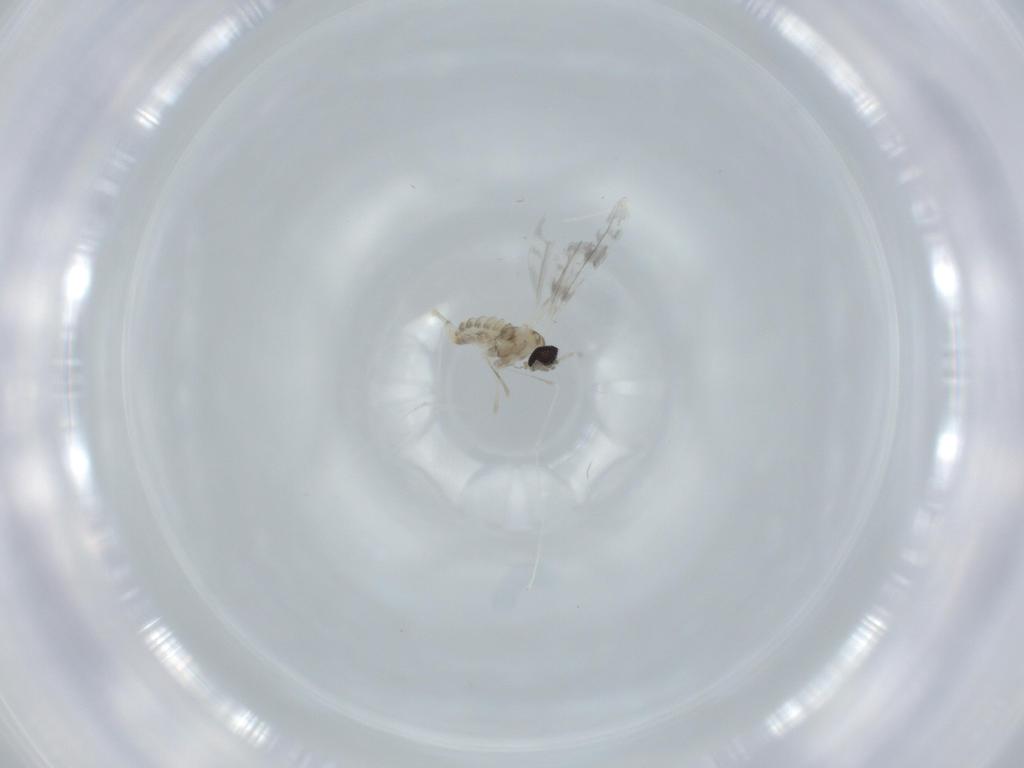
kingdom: Animalia
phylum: Arthropoda
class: Insecta
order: Diptera
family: Cecidomyiidae
